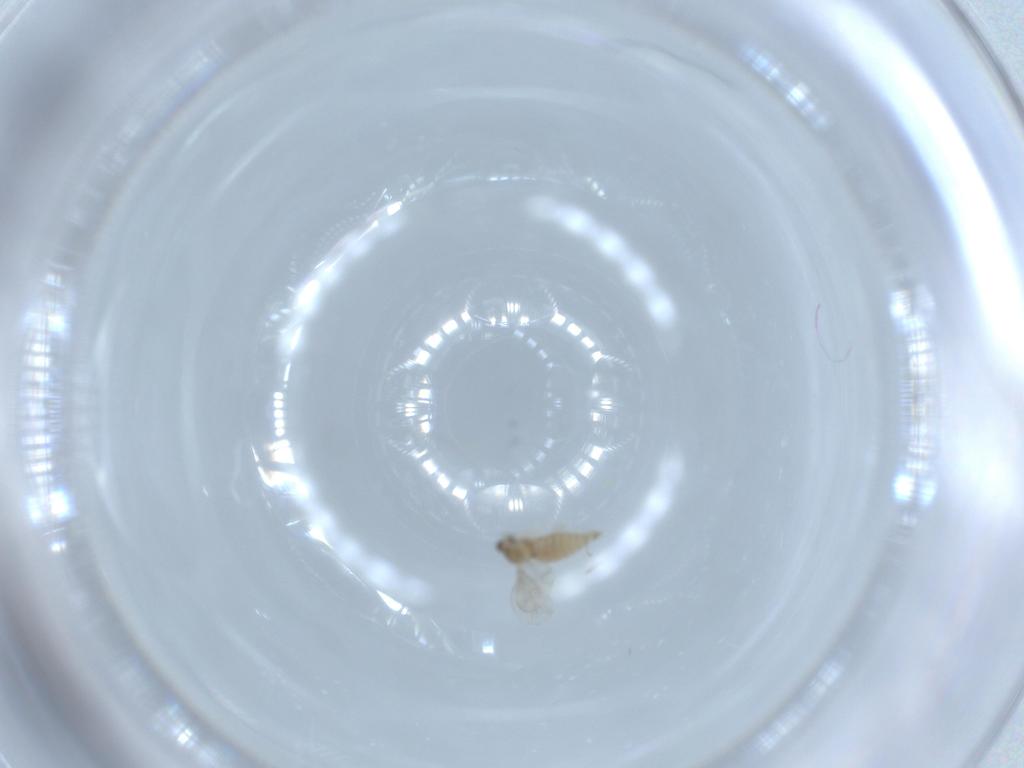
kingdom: Animalia
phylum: Arthropoda
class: Insecta
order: Diptera
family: Cecidomyiidae
